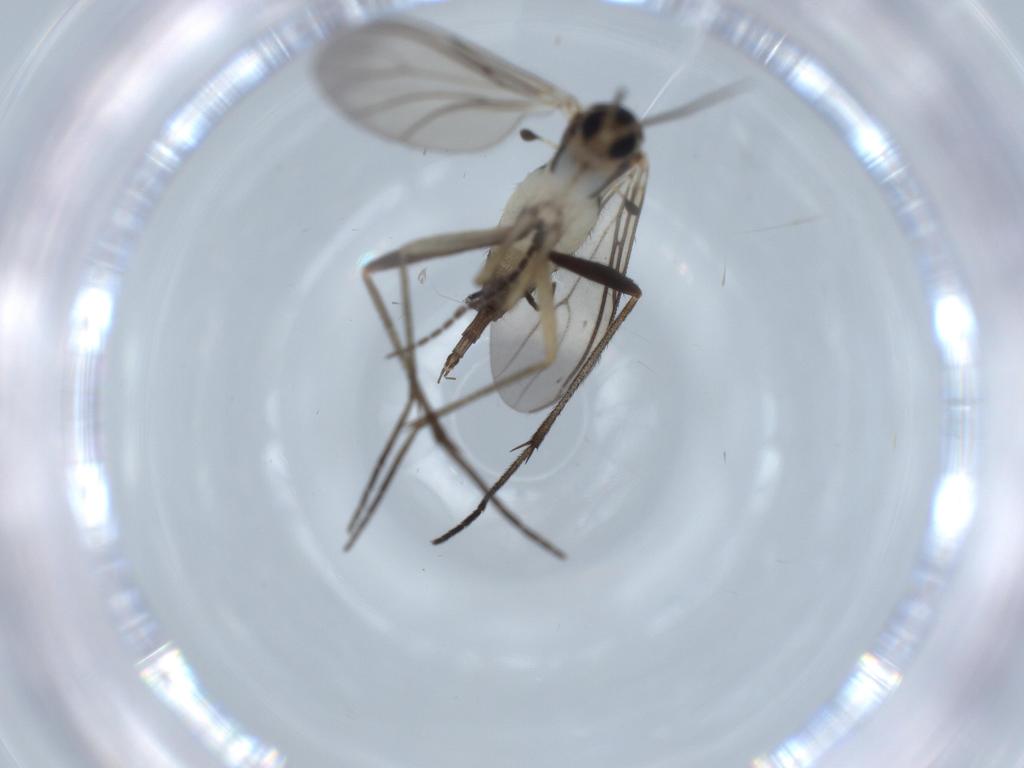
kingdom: Animalia
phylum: Arthropoda
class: Insecta
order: Diptera
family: Sciaridae
